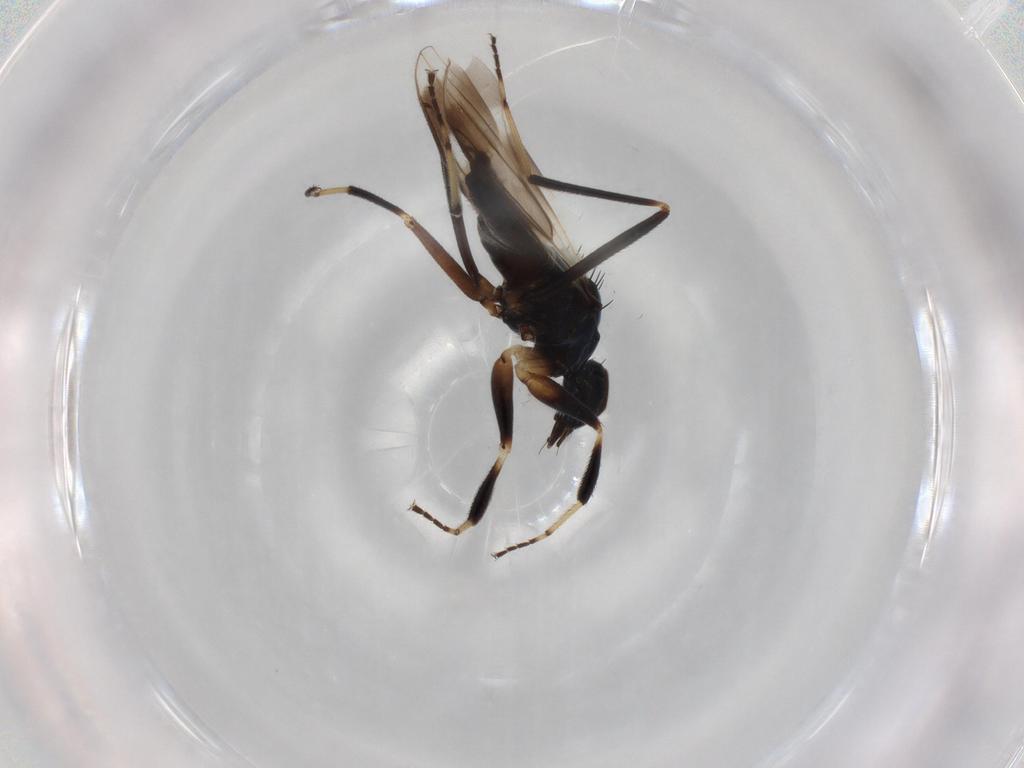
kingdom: Animalia
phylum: Arthropoda
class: Insecta
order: Diptera
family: Hybotidae
